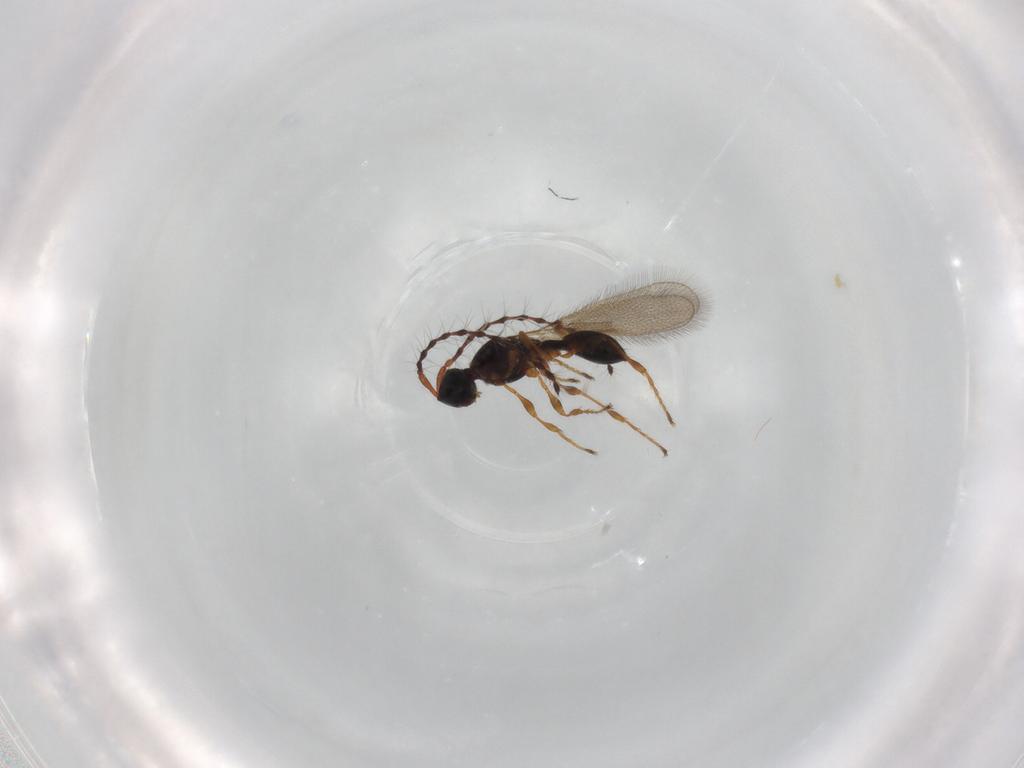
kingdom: Animalia
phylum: Arthropoda
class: Insecta
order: Hymenoptera
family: Diapriidae
